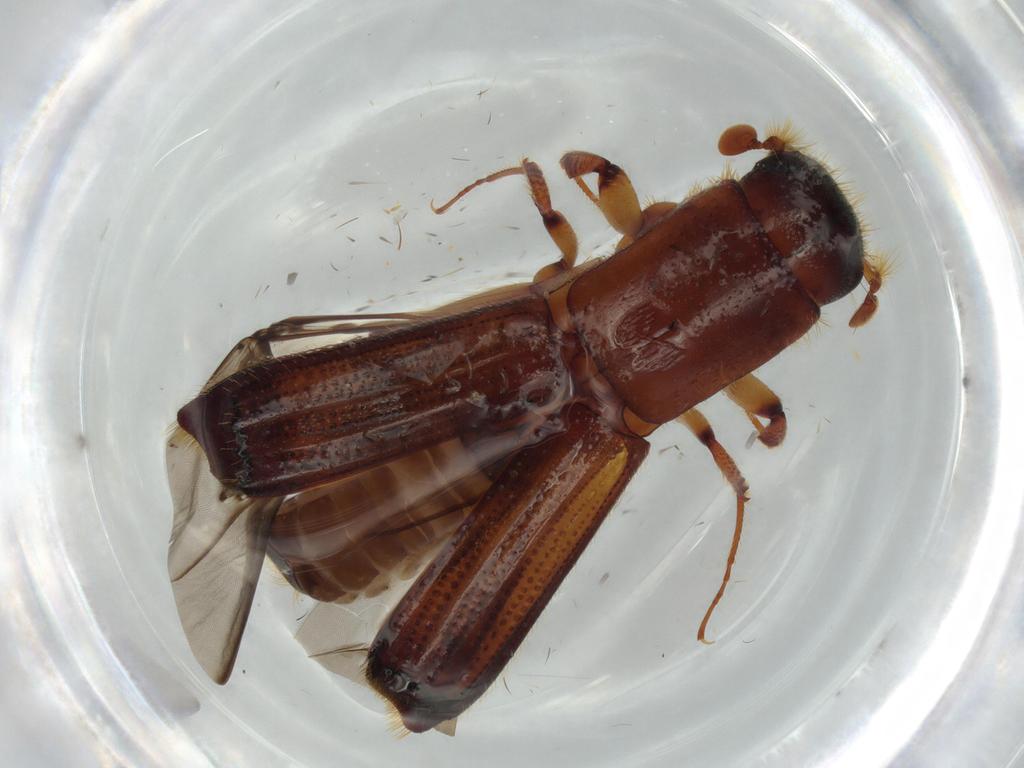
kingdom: Animalia
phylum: Arthropoda
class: Insecta
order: Coleoptera
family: Curculionidae
